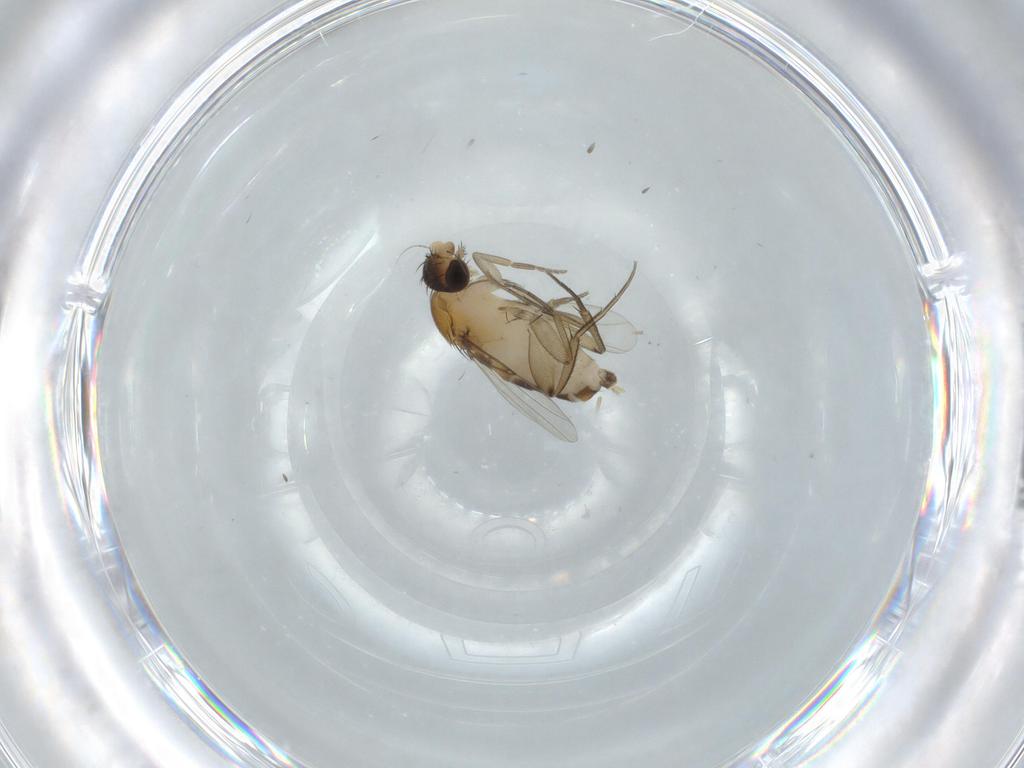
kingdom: Animalia
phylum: Arthropoda
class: Insecta
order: Diptera
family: Phoridae
